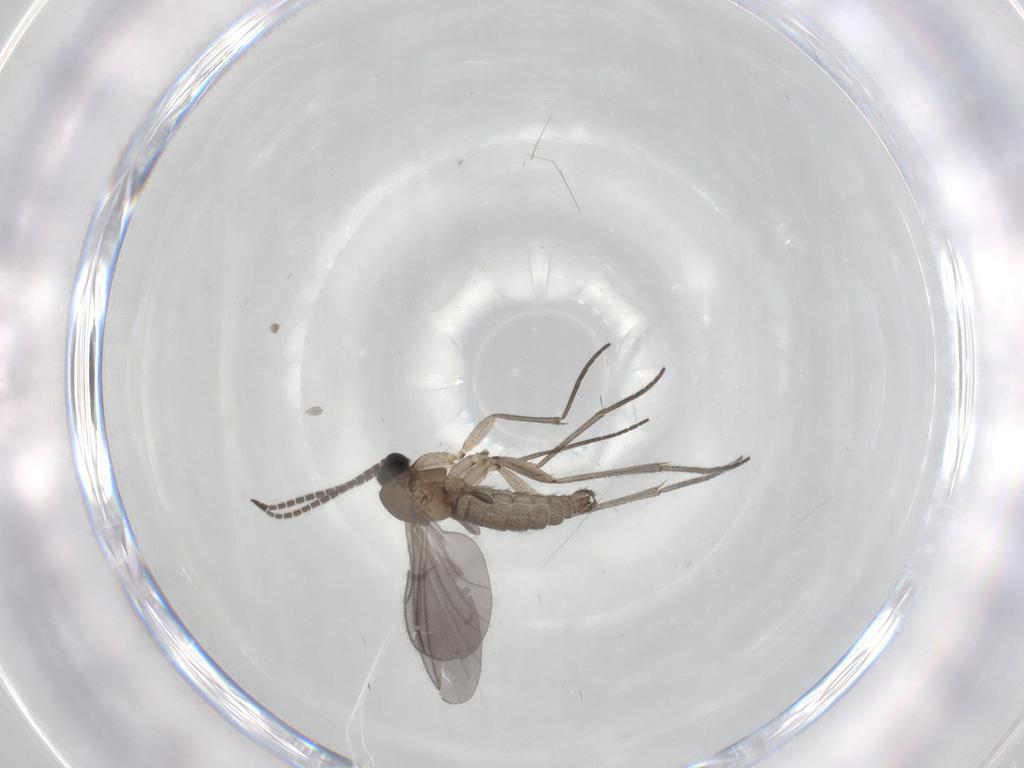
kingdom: Animalia
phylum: Arthropoda
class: Insecta
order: Diptera
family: Sciaridae
